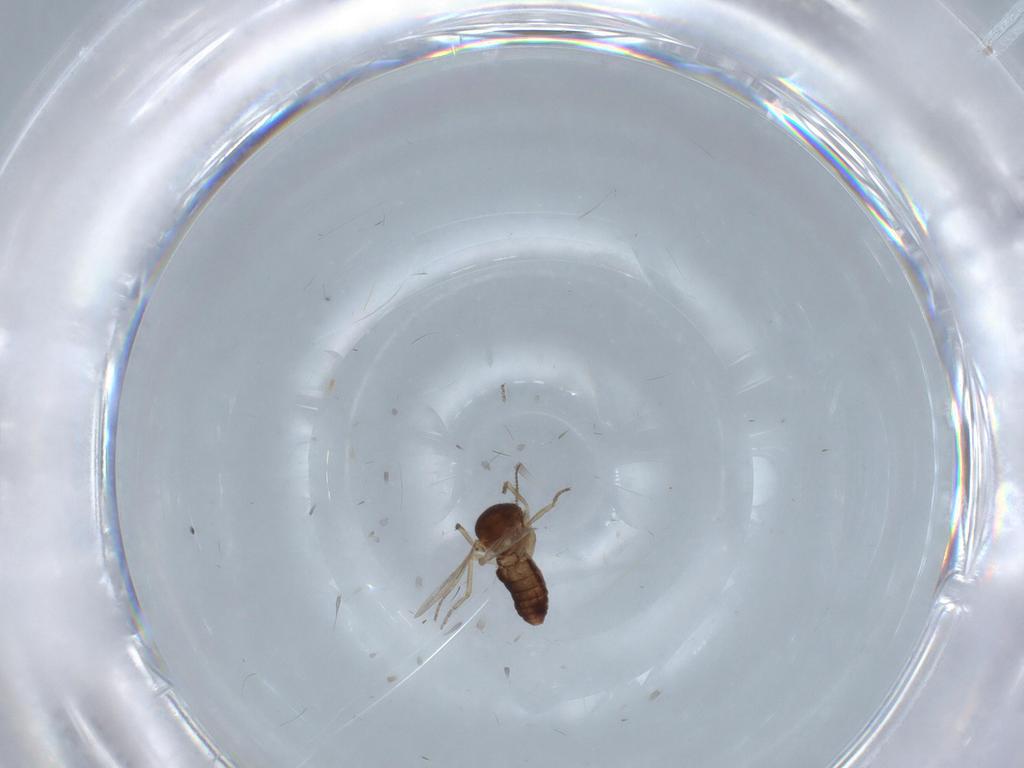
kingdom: Animalia
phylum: Arthropoda
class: Insecta
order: Diptera
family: Ceratopogonidae
